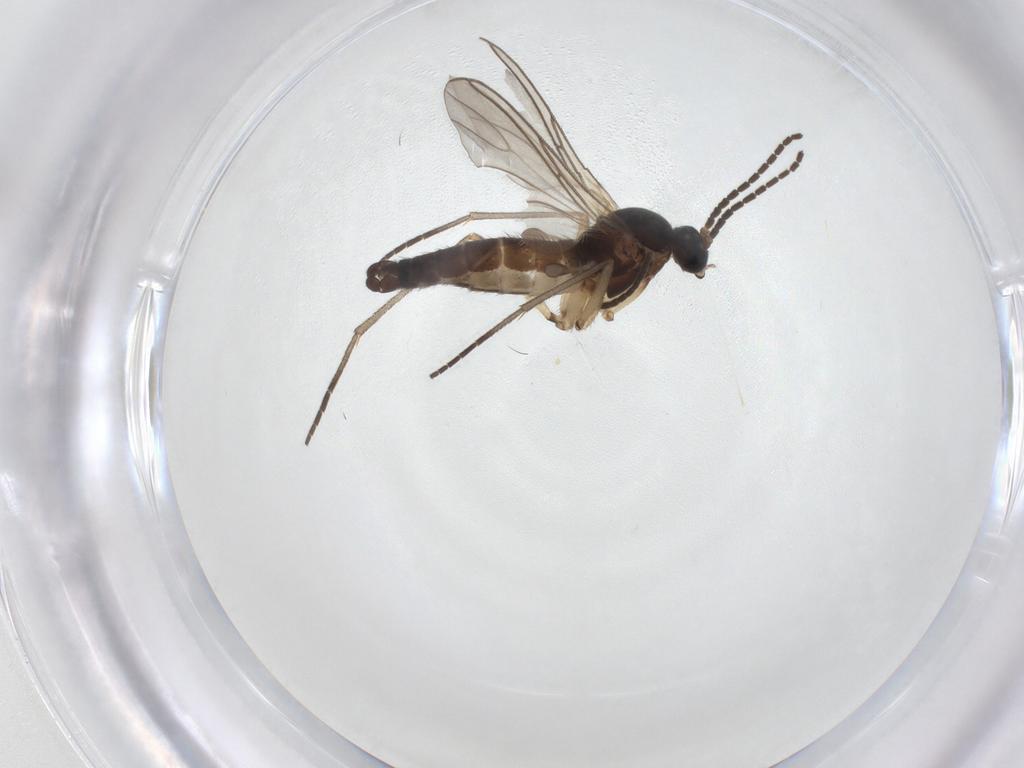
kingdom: Animalia
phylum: Arthropoda
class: Insecta
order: Diptera
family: Sciaridae
